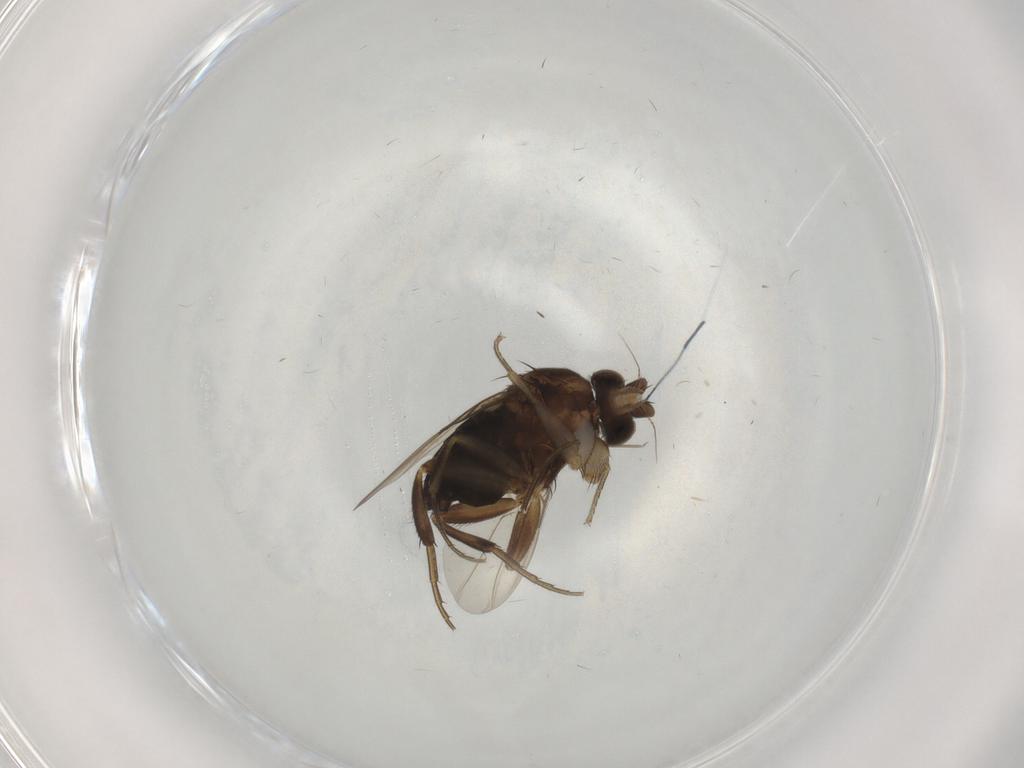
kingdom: Animalia
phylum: Arthropoda
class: Insecta
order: Diptera
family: Phoridae
